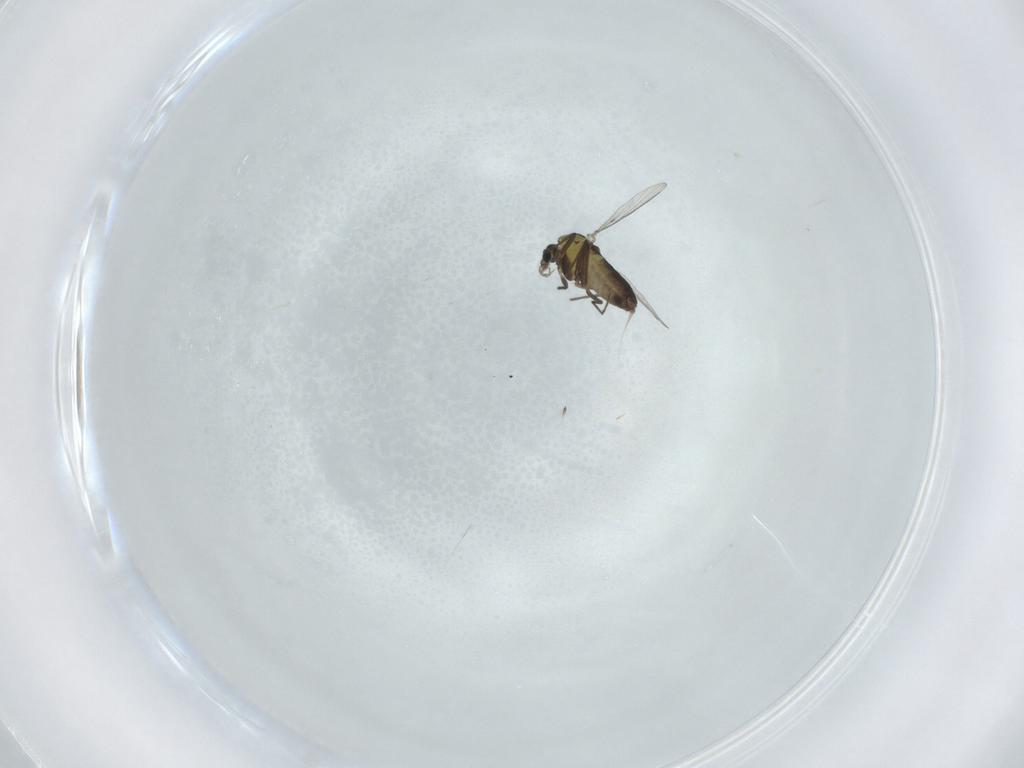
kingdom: Animalia
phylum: Arthropoda
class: Insecta
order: Diptera
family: Chironomidae
